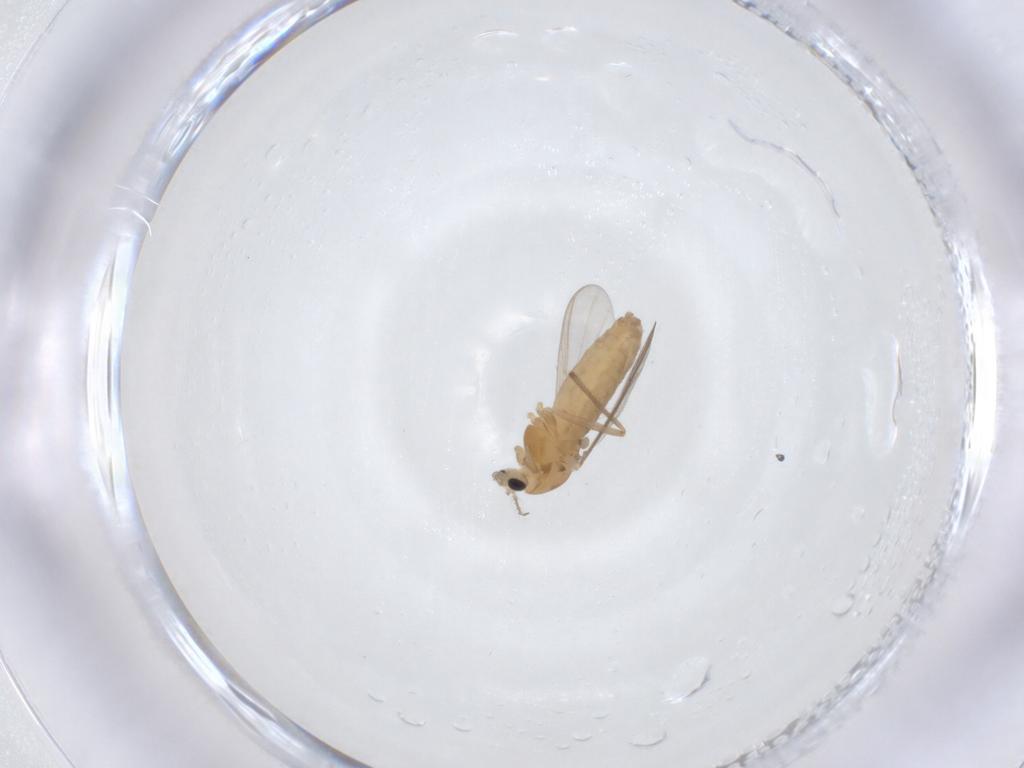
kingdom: Animalia
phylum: Arthropoda
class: Insecta
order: Diptera
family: Chironomidae
